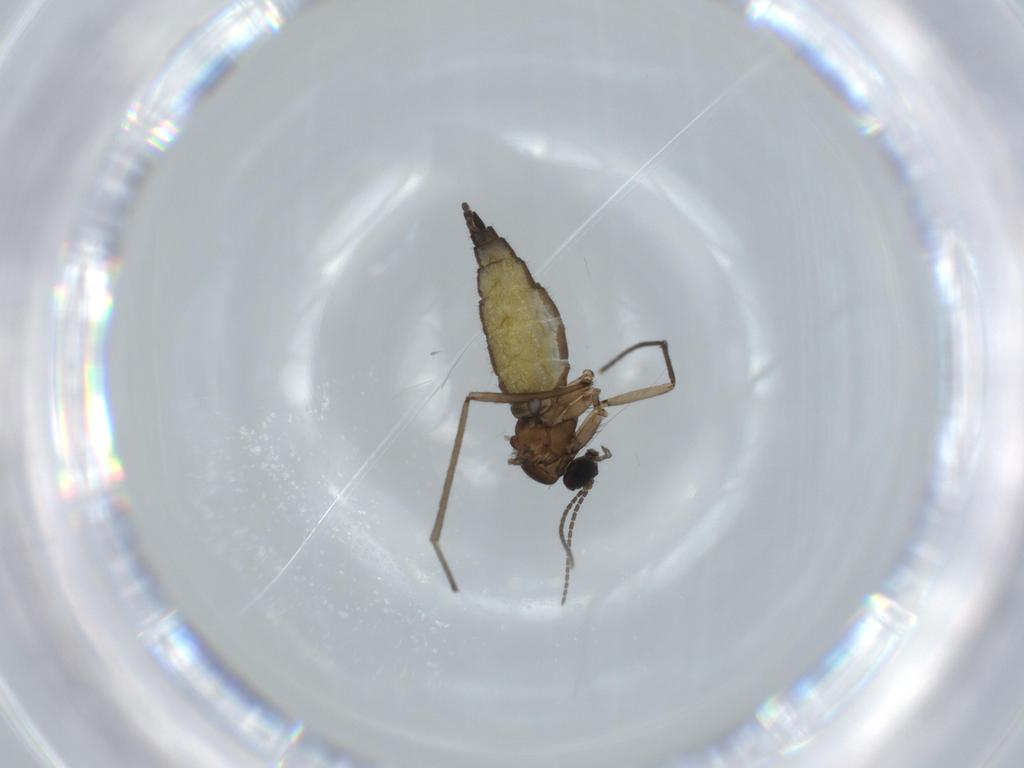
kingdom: Animalia
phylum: Arthropoda
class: Insecta
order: Diptera
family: Sciaridae
